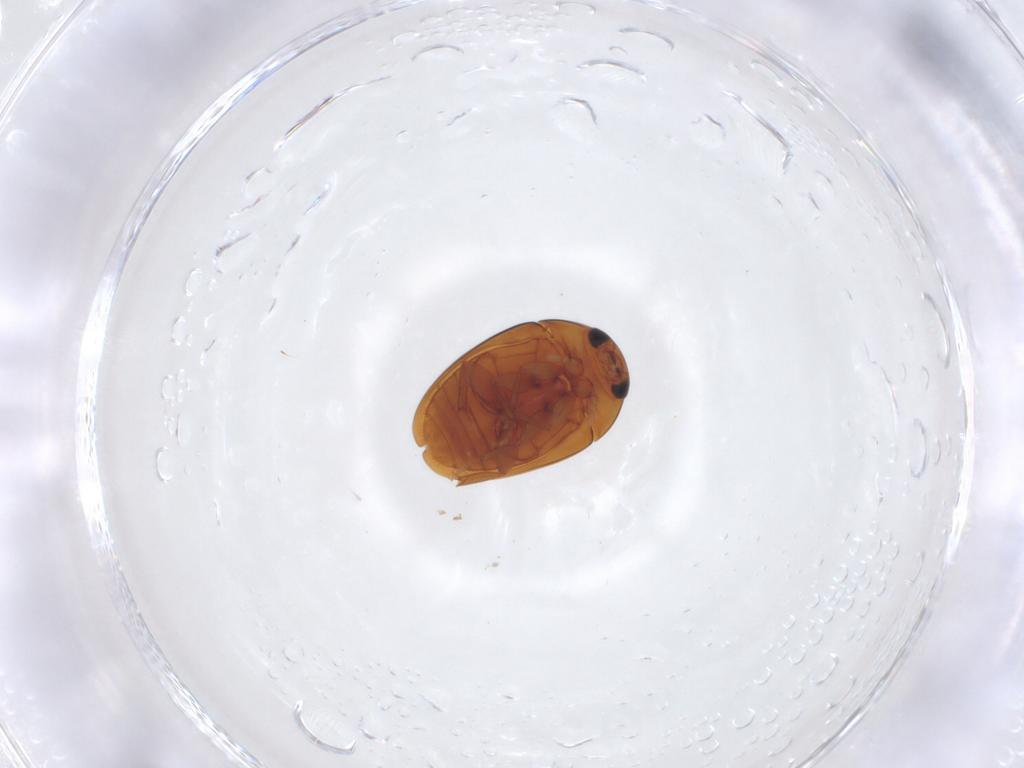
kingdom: Animalia
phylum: Arthropoda
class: Insecta
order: Coleoptera
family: Phalacridae
